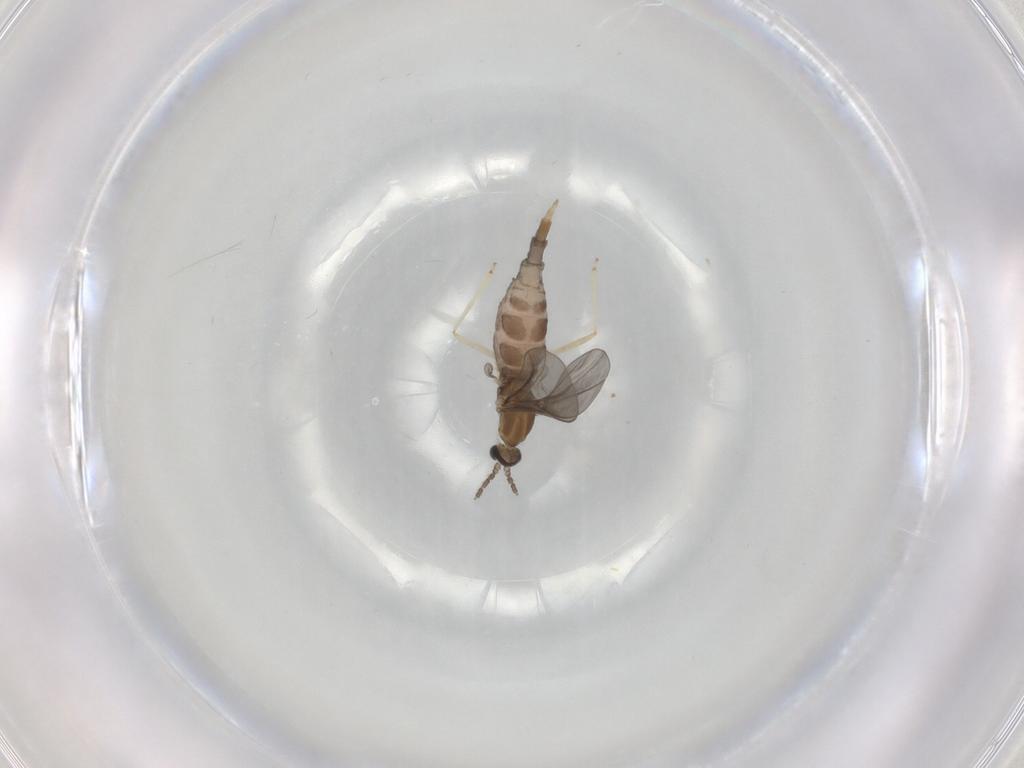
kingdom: Animalia
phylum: Arthropoda
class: Insecta
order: Diptera
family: Cecidomyiidae
